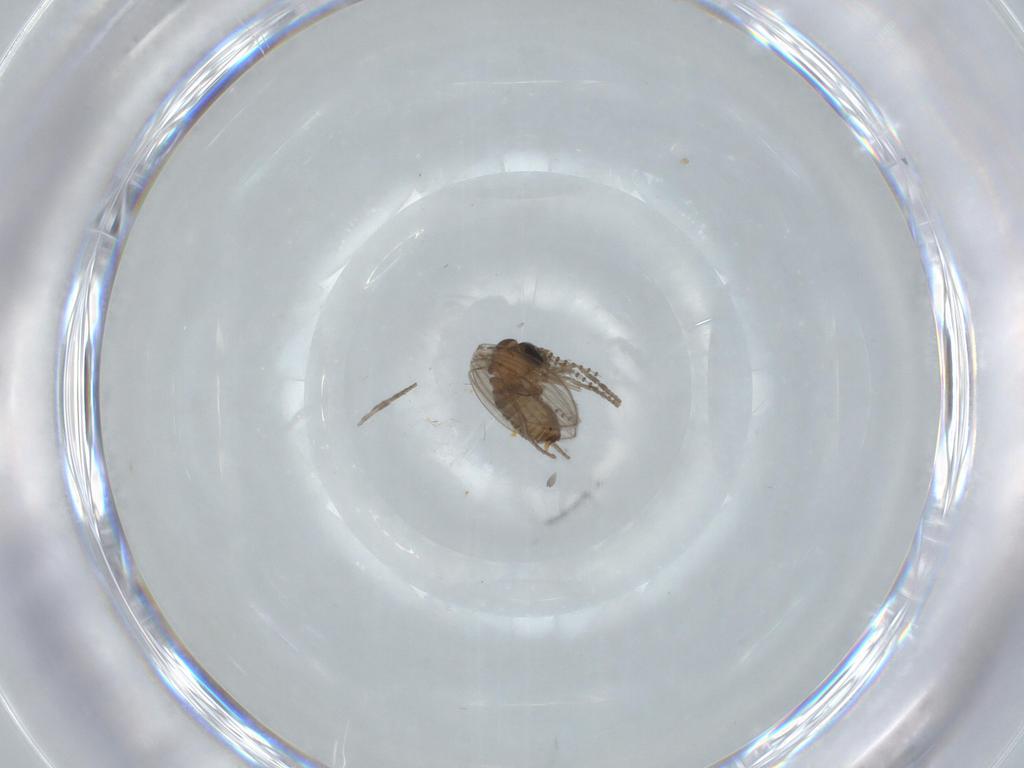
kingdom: Animalia
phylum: Arthropoda
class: Insecta
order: Diptera
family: Psychodidae
